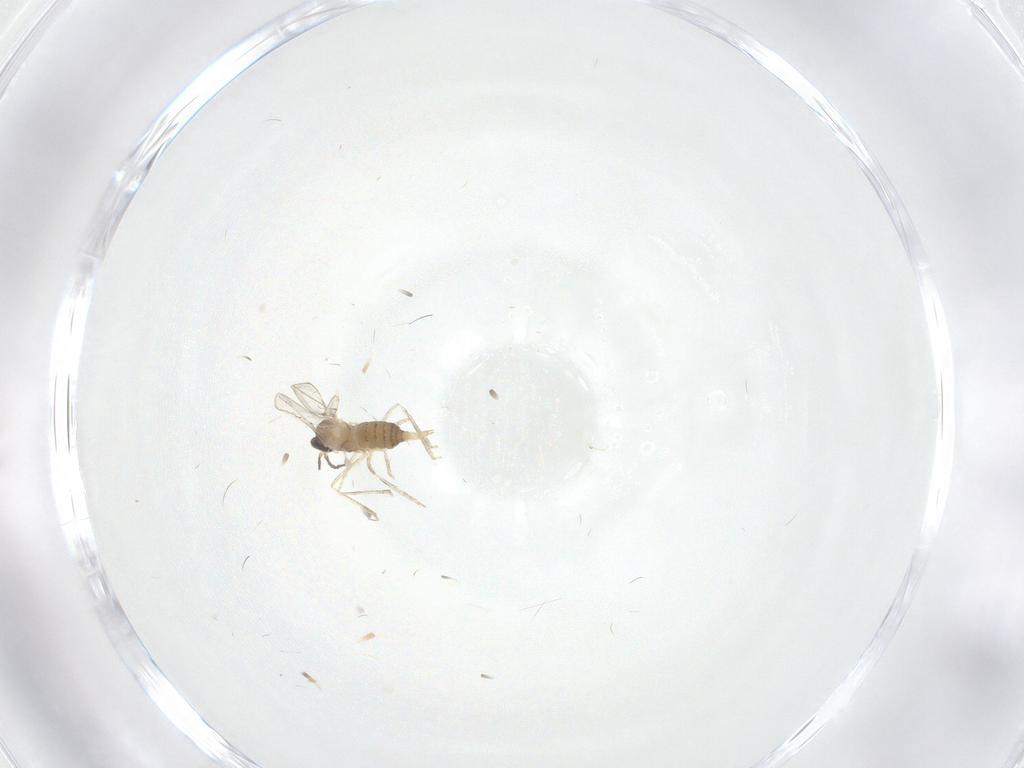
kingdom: Animalia
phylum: Arthropoda
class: Insecta
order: Diptera
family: Cecidomyiidae
